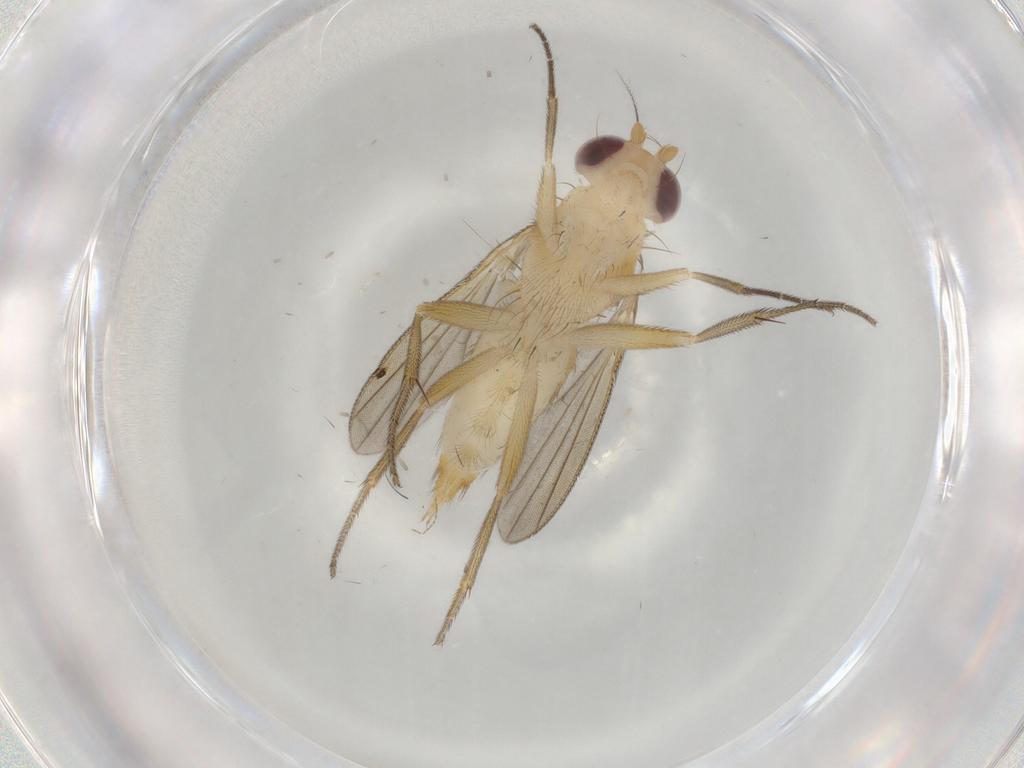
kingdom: Animalia
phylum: Arthropoda
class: Insecta
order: Diptera
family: Clusiidae
